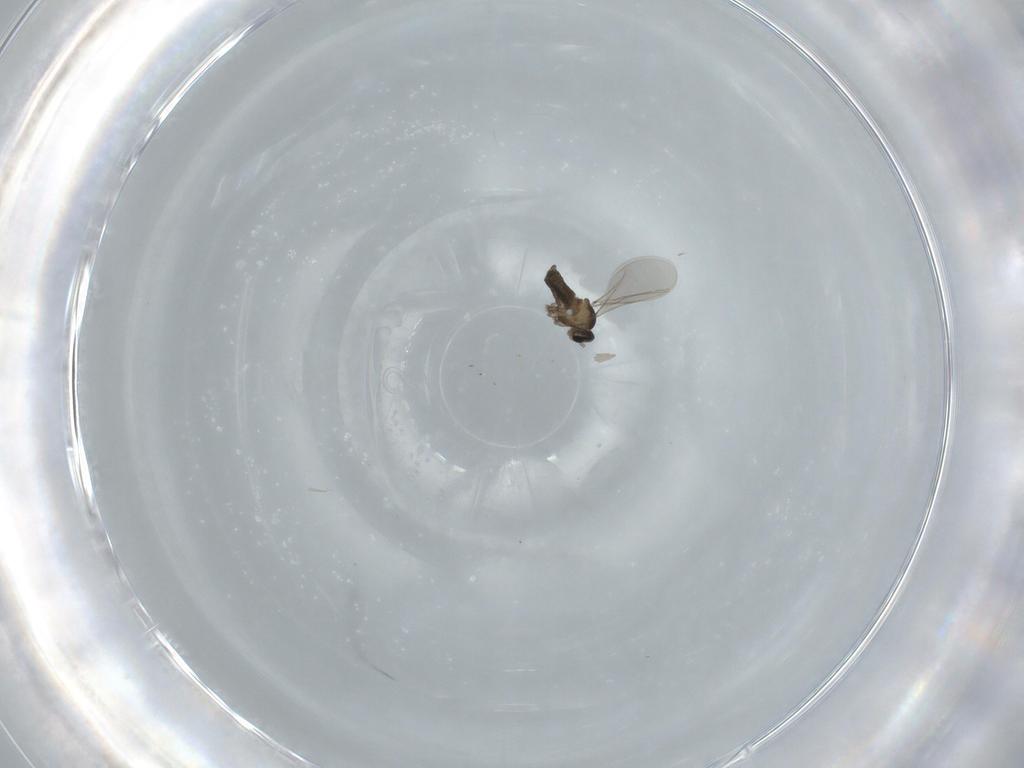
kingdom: Animalia
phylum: Arthropoda
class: Insecta
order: Diptera
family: Cecidomyiidae
